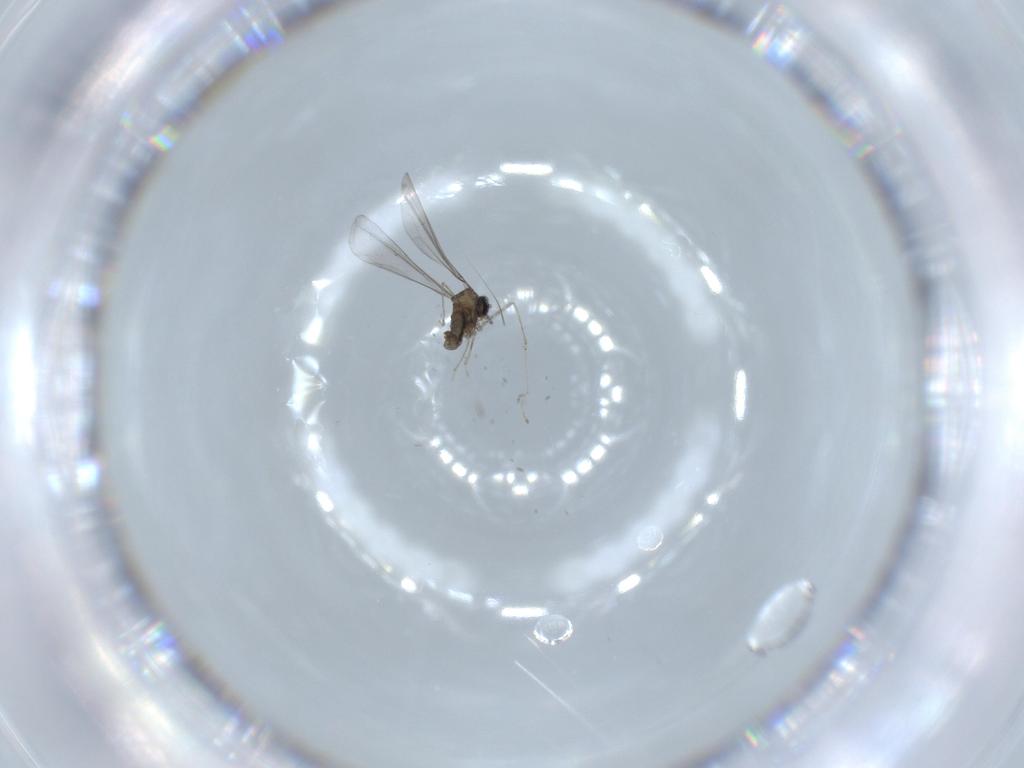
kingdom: Animalia
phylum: Arthropoda
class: Insecta
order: Diptera
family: Cecidomyiidae
